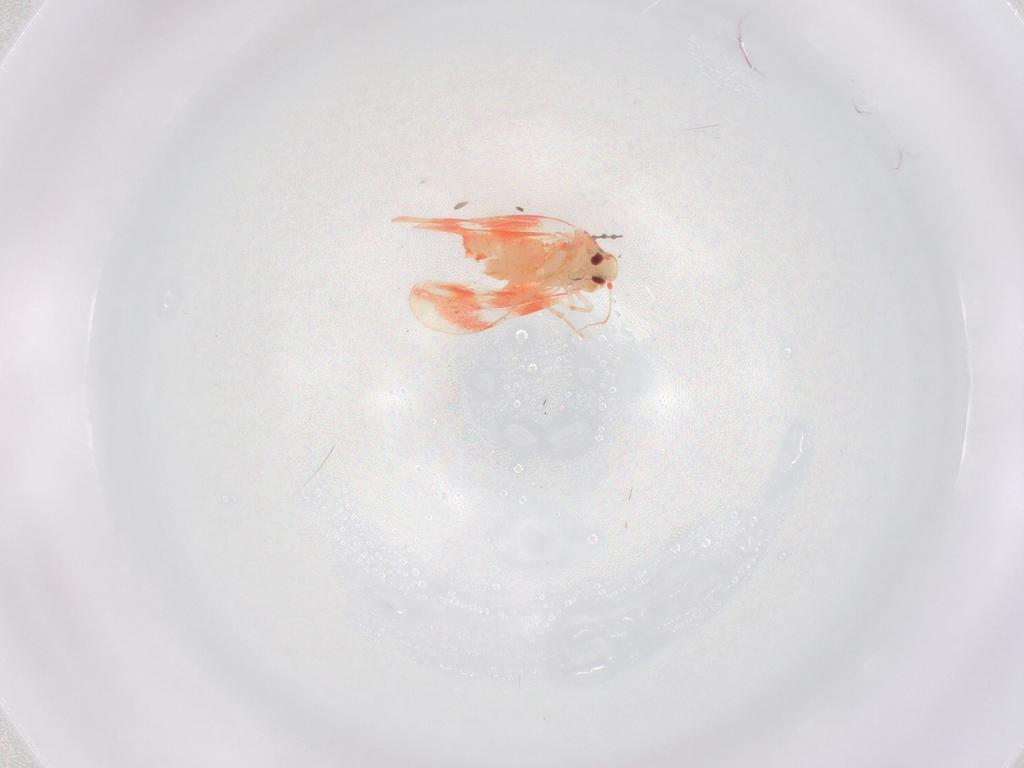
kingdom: Animalia
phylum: Arthropoda
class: Insecta
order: Hemiptera
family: Aleyrodidae
